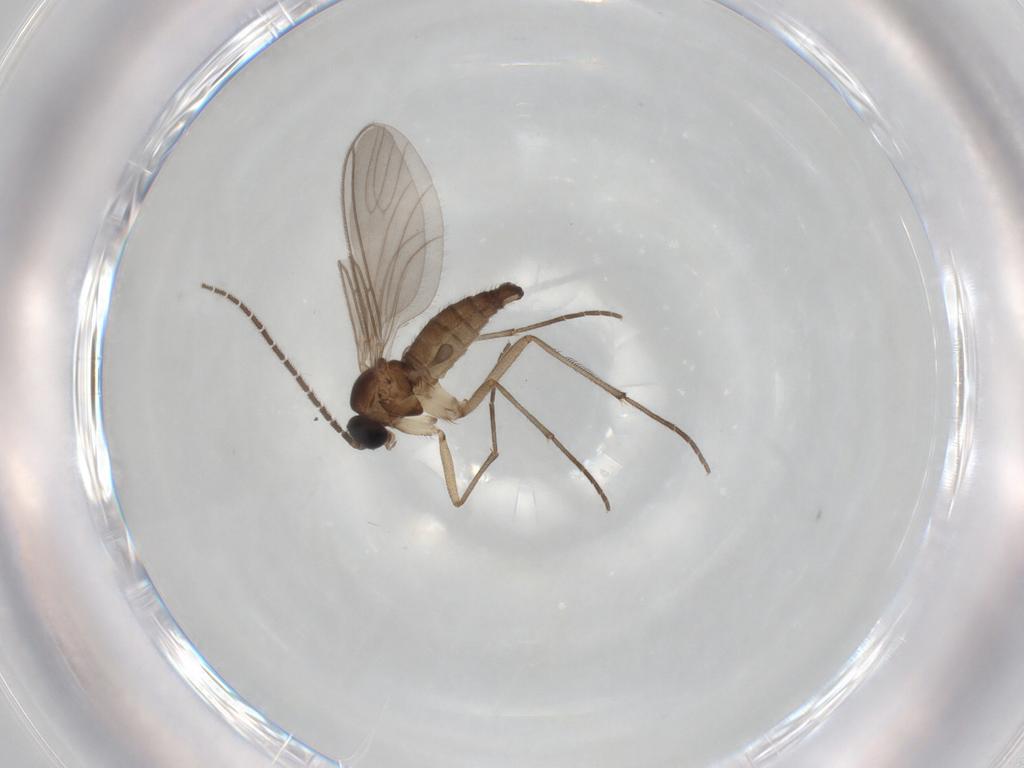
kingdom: Animalia
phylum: Arthropoda
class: Insecta
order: Diptera
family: Sciaridae
